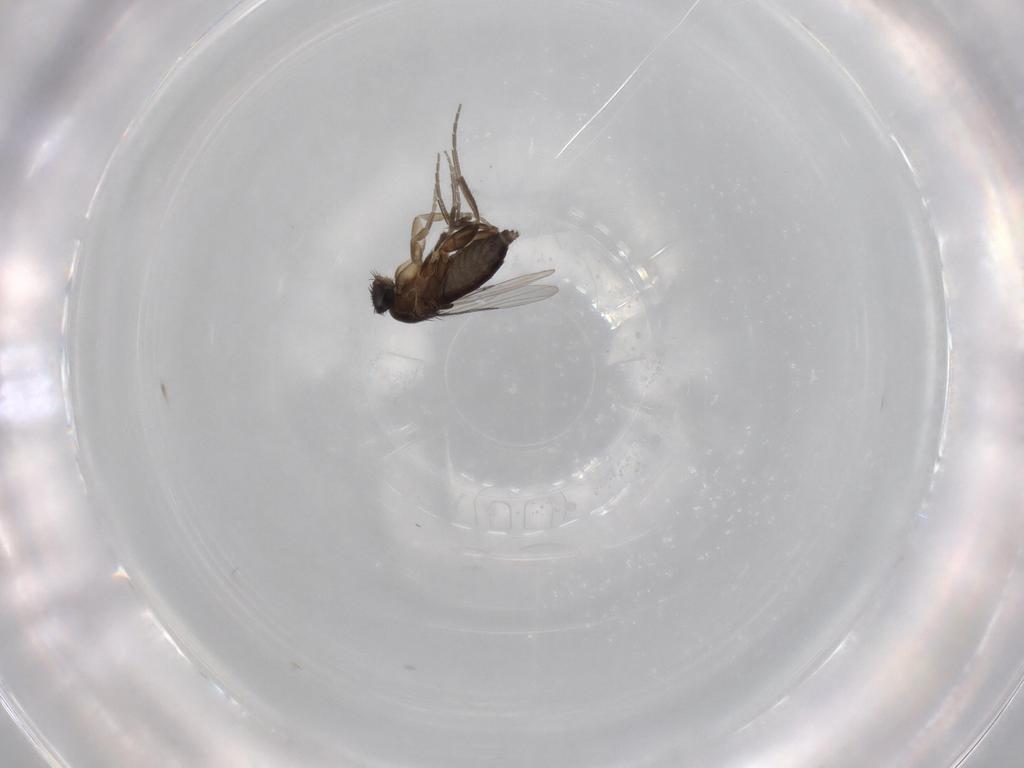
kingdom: Animalia
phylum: Arthropoda
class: Insecta
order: Diptera
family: Phoridae
